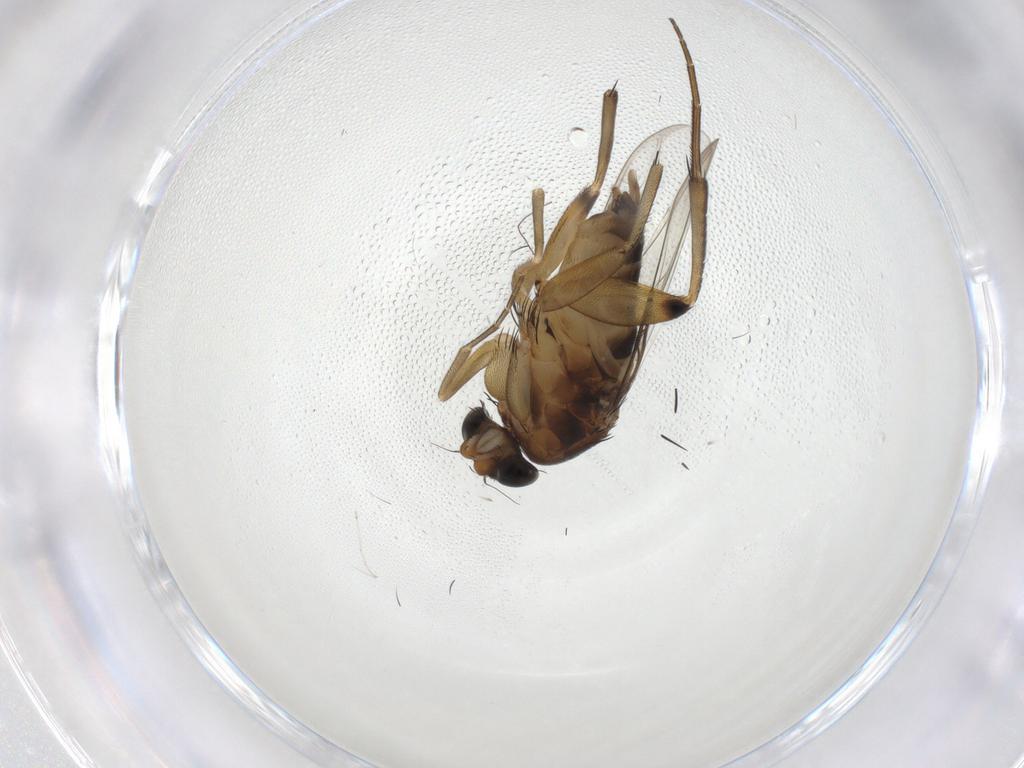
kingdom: Animalia
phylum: Arthropoda
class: Insecta
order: Diptera
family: Phoridae
